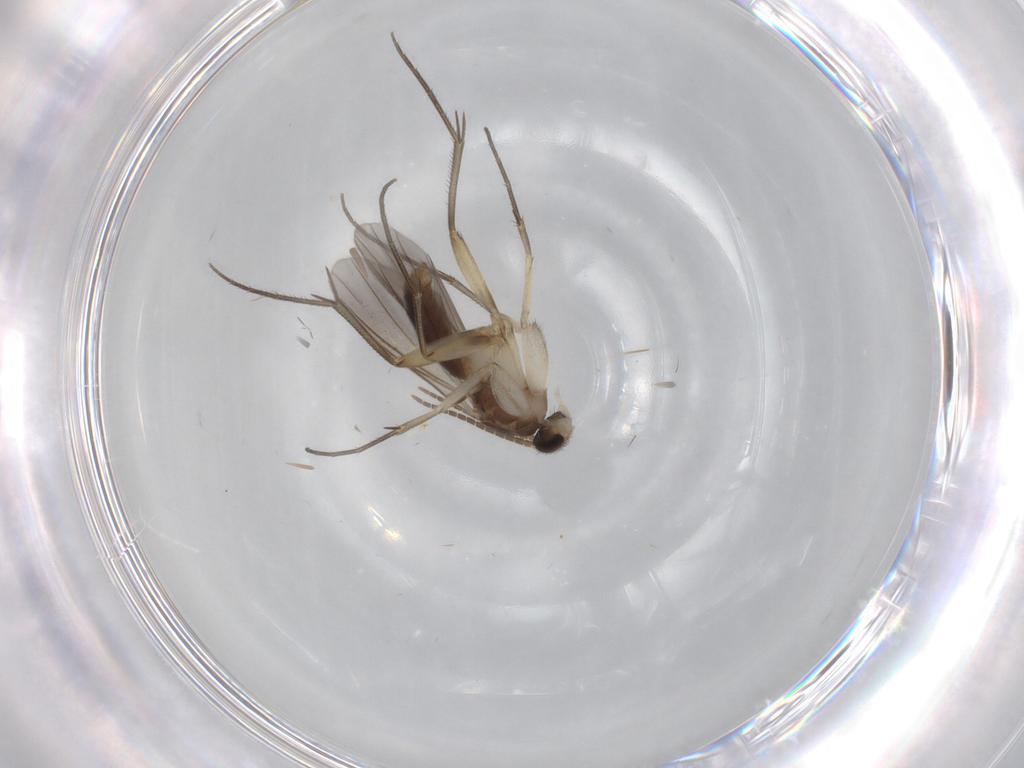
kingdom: Animalia
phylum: Arthropoda
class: Insecta
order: Diptera
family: Mycetophilidae
